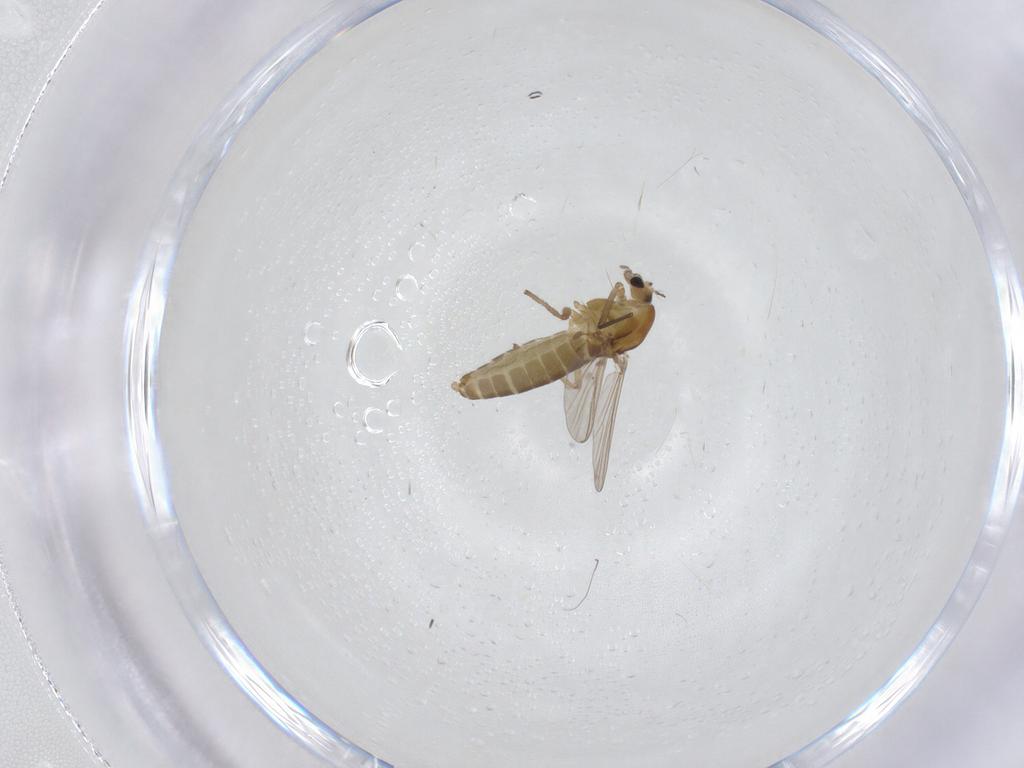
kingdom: Animalia
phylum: Arthropoda
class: Insecta
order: Diptera
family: Chironomidae
